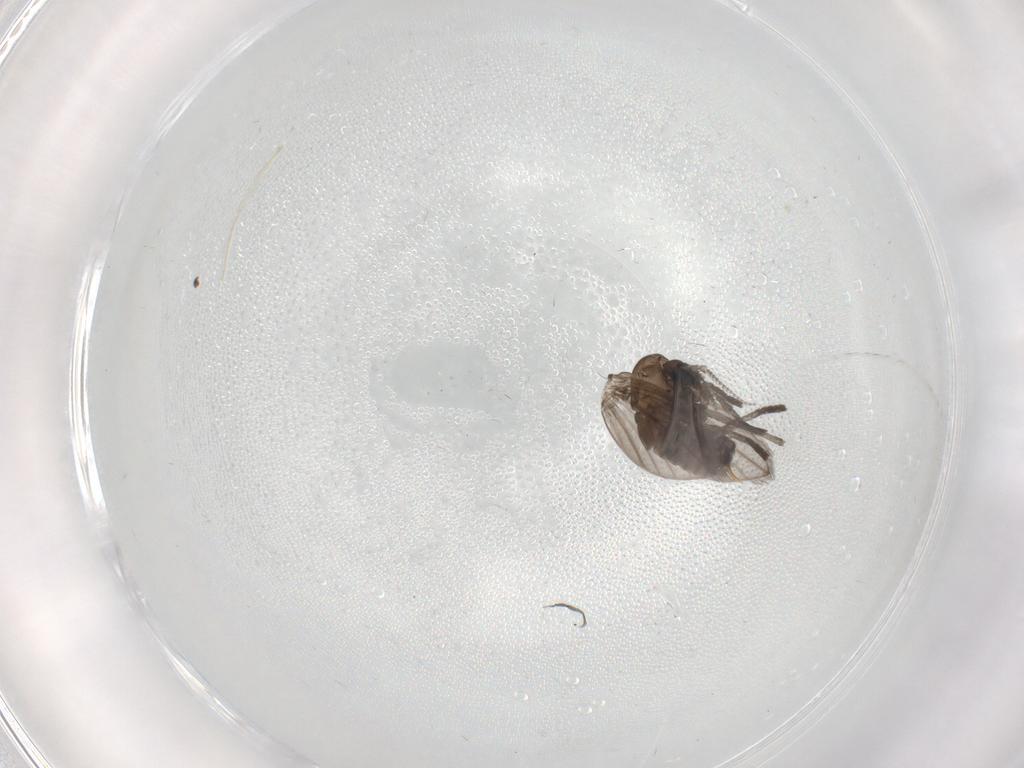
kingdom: Animalia
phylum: Arthropoda
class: Insecta
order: Diptera
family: Psychodidae
